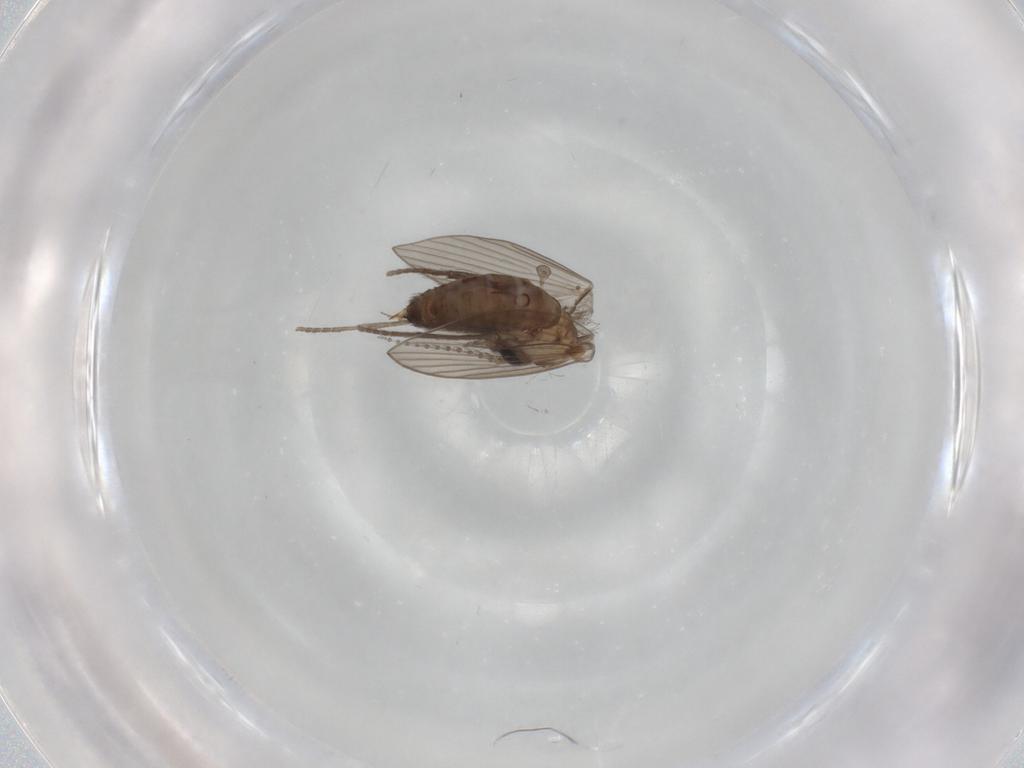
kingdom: Animalia
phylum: Arthropoda
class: Insecta
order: Diptera
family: Psychodidae
